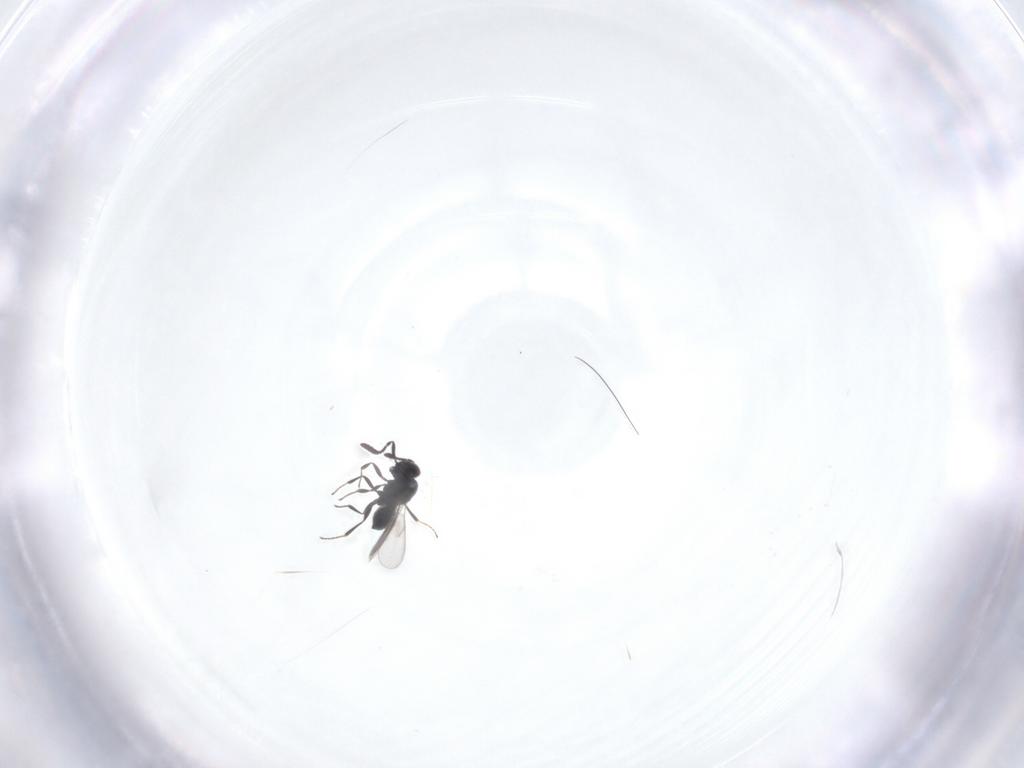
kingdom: Animalia
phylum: Arthropoda
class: Insecta
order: Hymenoptera
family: Scelionidae
